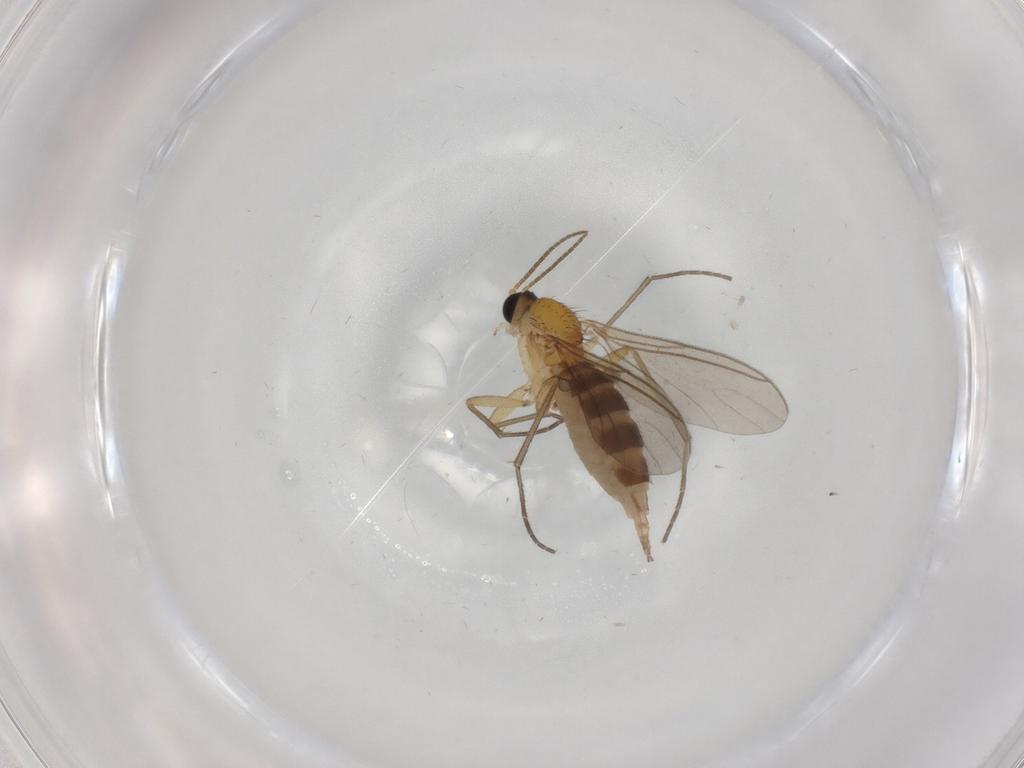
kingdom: Animalia
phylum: Arthropoda
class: Insecta
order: Diptera
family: Sciaridae
